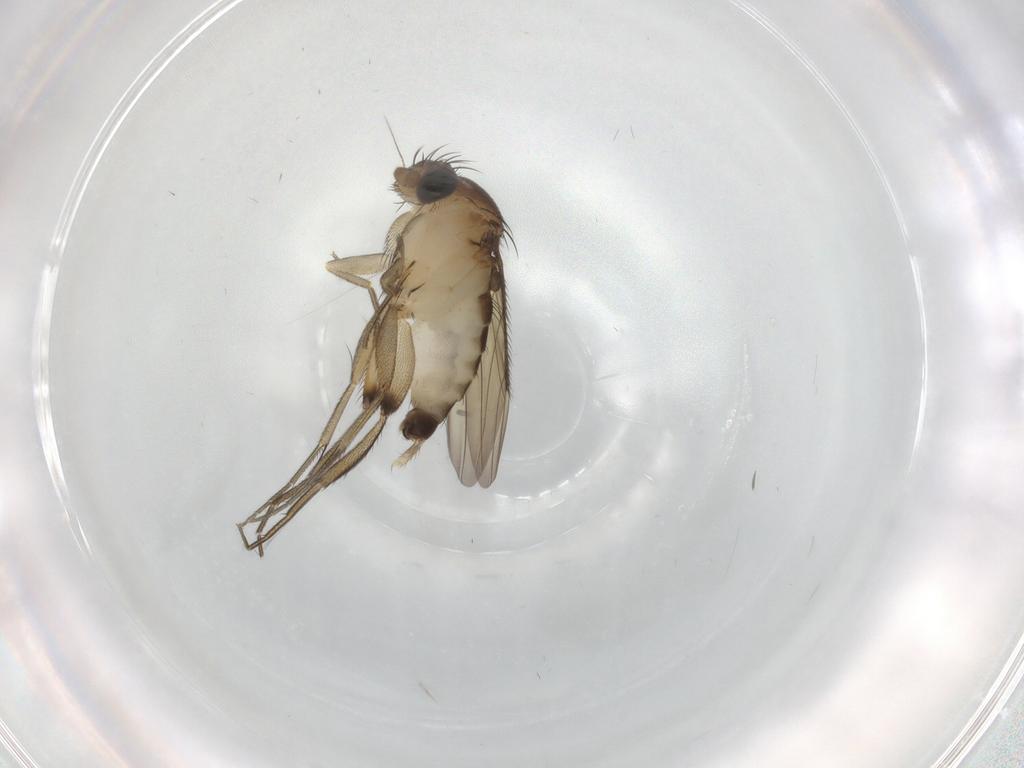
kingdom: Animalia
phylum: Arthropoda
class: Insecta
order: Diptera
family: Phoridae
